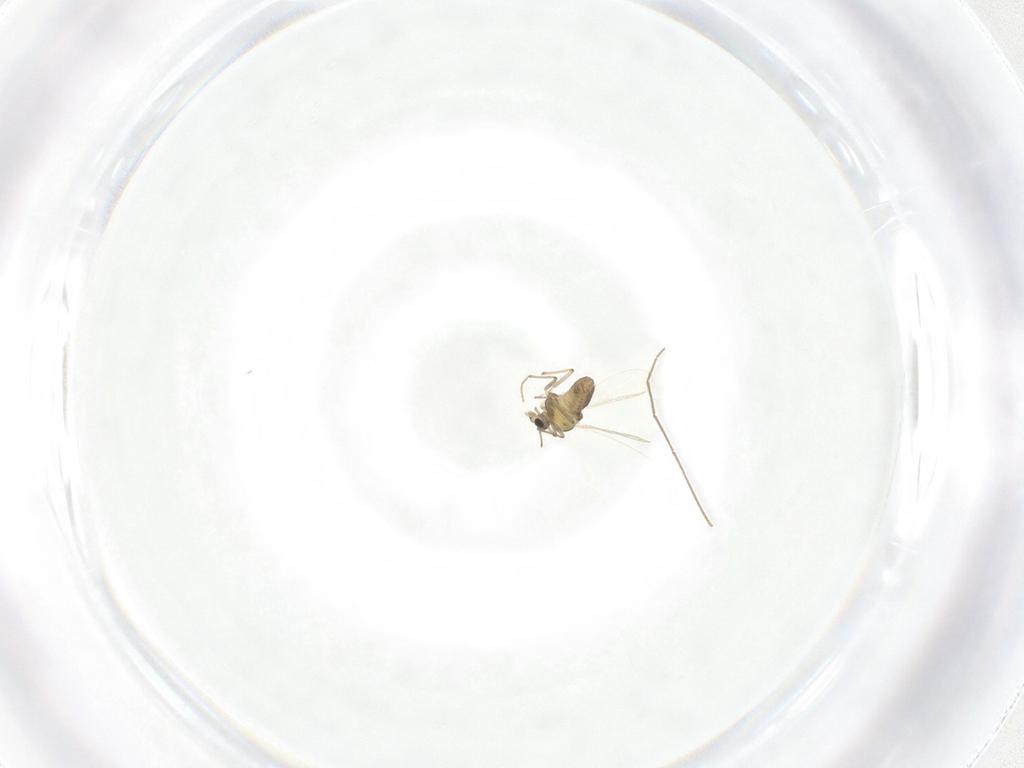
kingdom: Animalia
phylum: Arthropoda
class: Insecta
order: Diptera
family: Chironomidae
